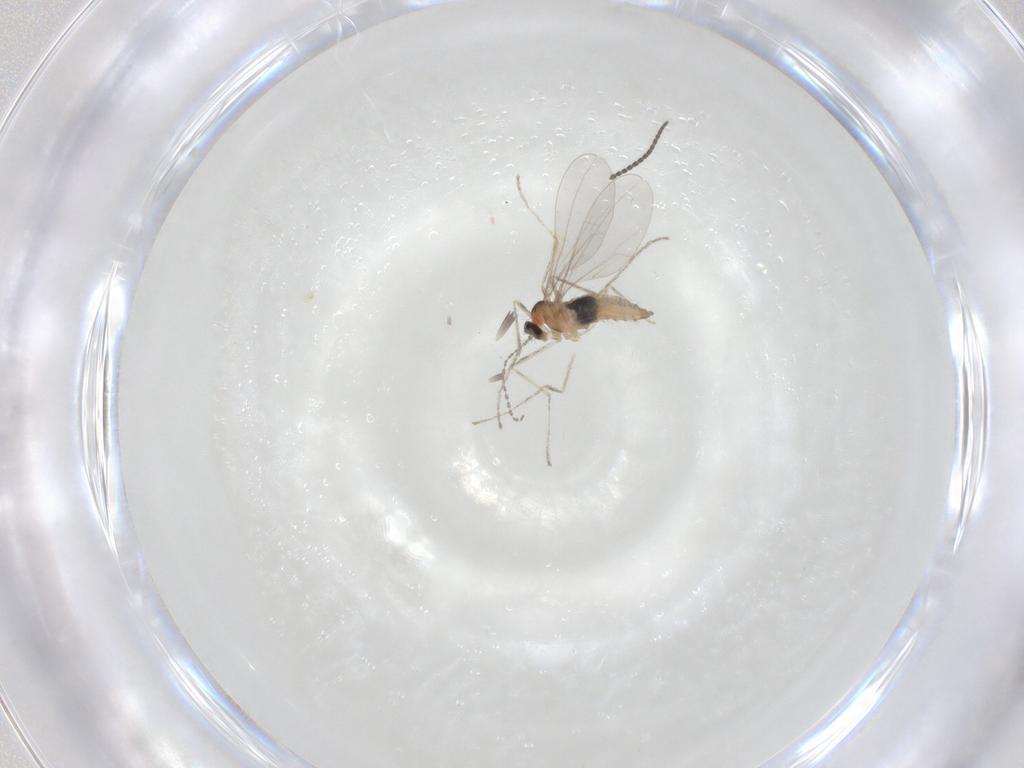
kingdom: Animalia
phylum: Arthropoda
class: Insecta
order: Diptera
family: Cecidomyiidae
